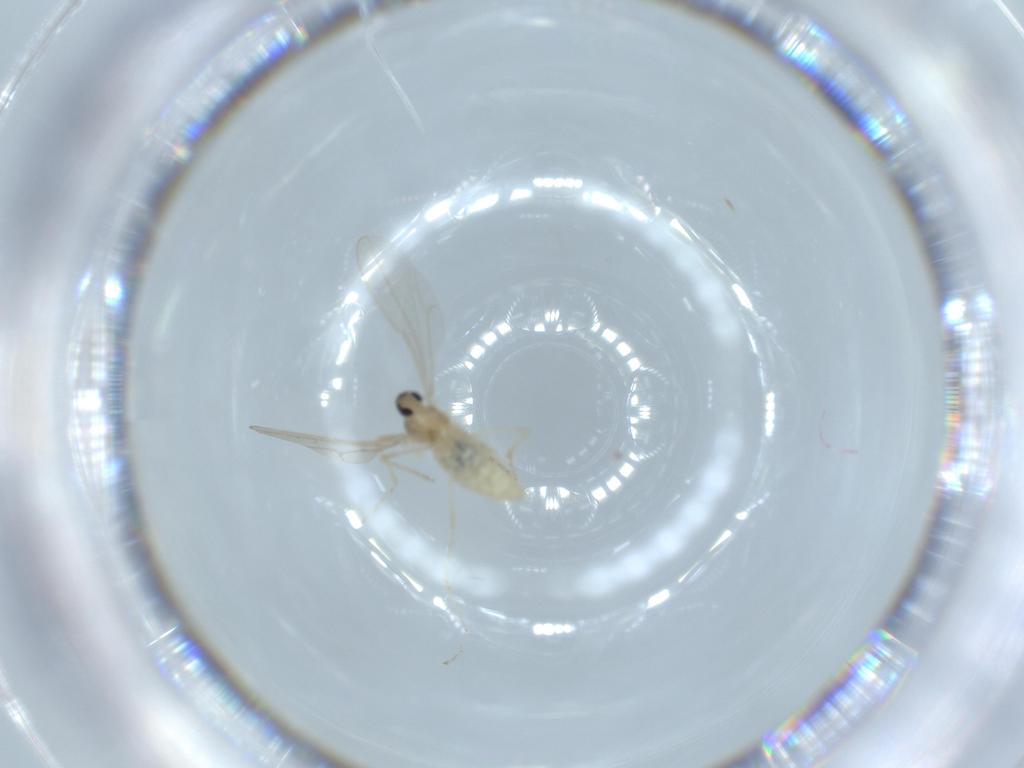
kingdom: Animalia
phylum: Arthropoda
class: Insecta
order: Diptera
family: Cecidomyiidae
